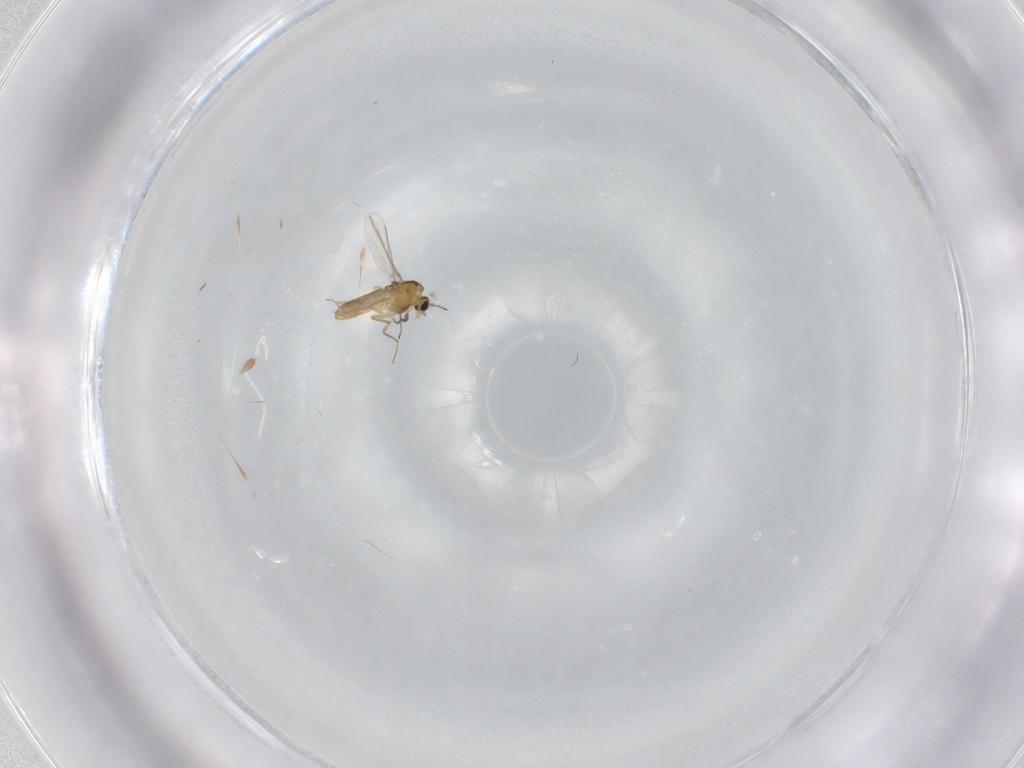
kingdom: Animalia
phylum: Arthropoda
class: Insecta
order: Diptera
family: Chironomidae
